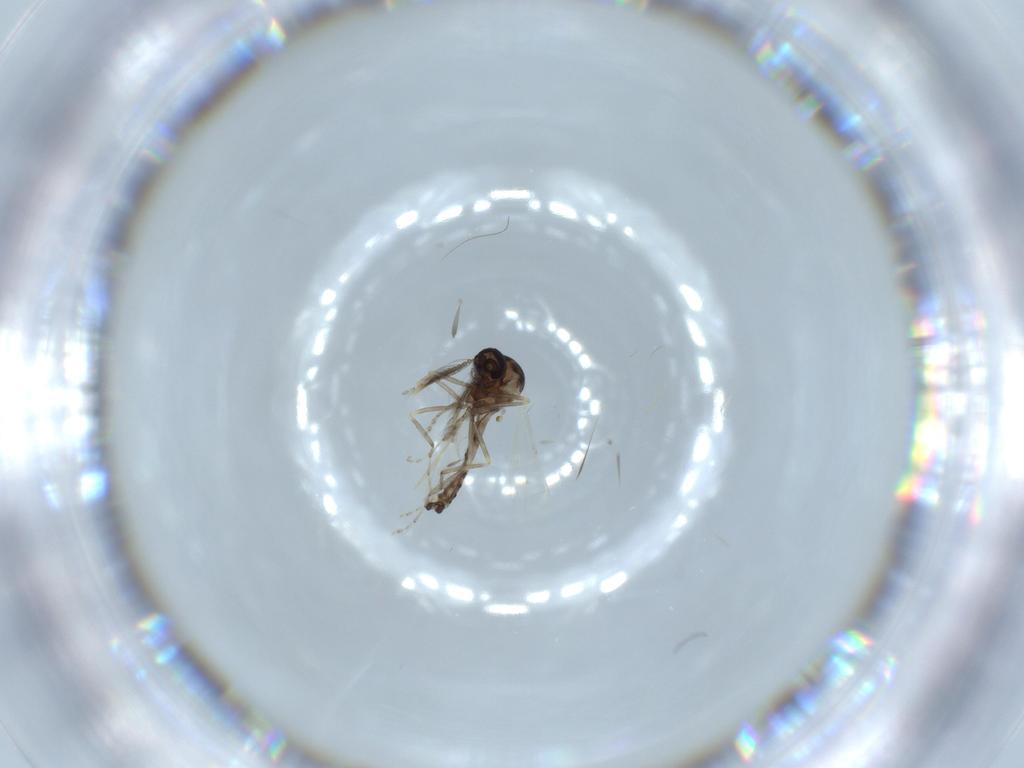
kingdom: Animalia
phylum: Arthropoda
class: Insecta
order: Diptera
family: Ceratopogonidae
